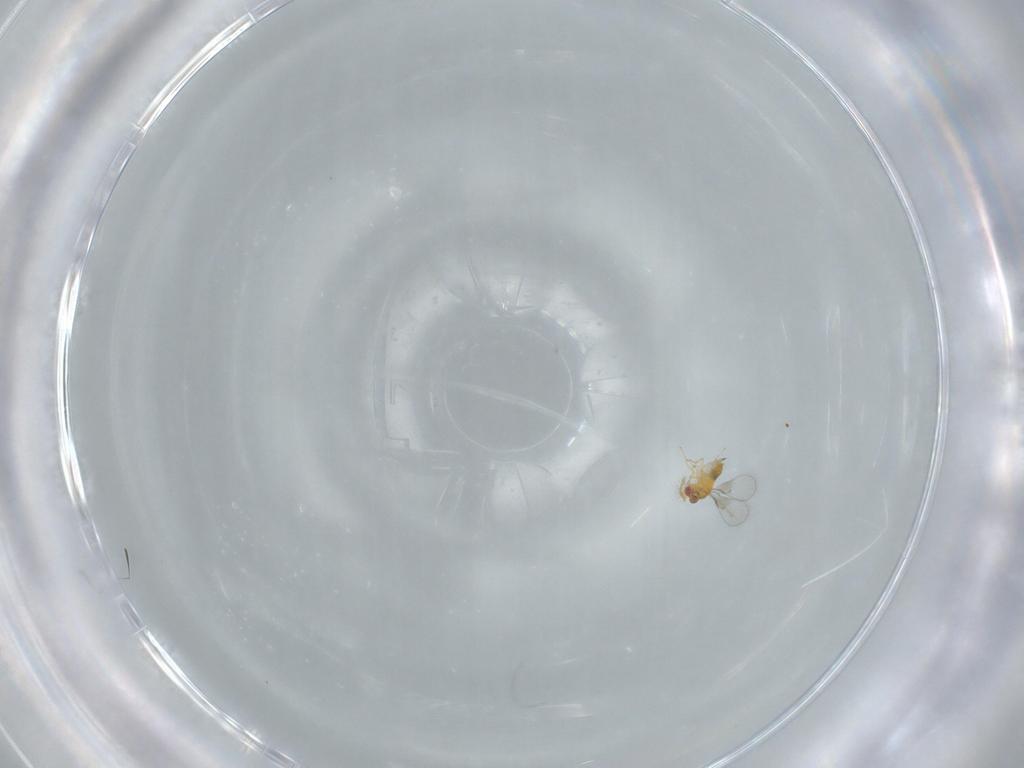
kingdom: Animalia
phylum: Arthropoda
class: Insecta
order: Hymenoptera
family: Trichogrammatidae
